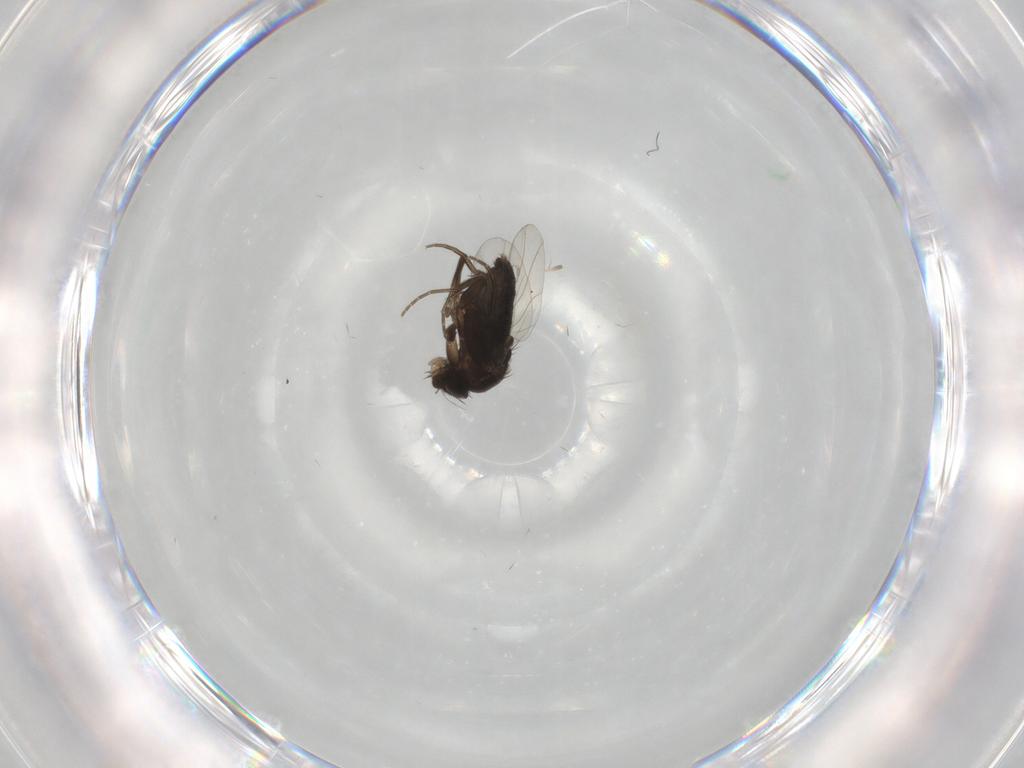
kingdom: Animalia
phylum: Arthropoda
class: Insecta
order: Diptera
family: Phoridae
